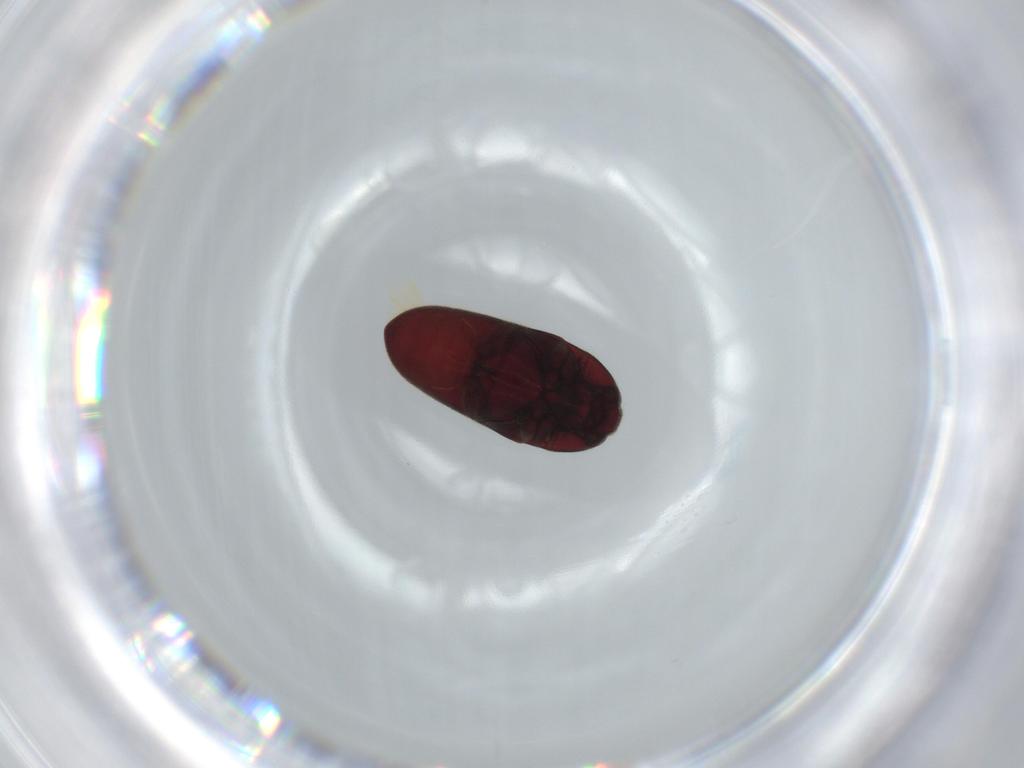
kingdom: Animalia
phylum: Arthropoda
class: Insecta
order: Coleoptera
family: Throscidae
